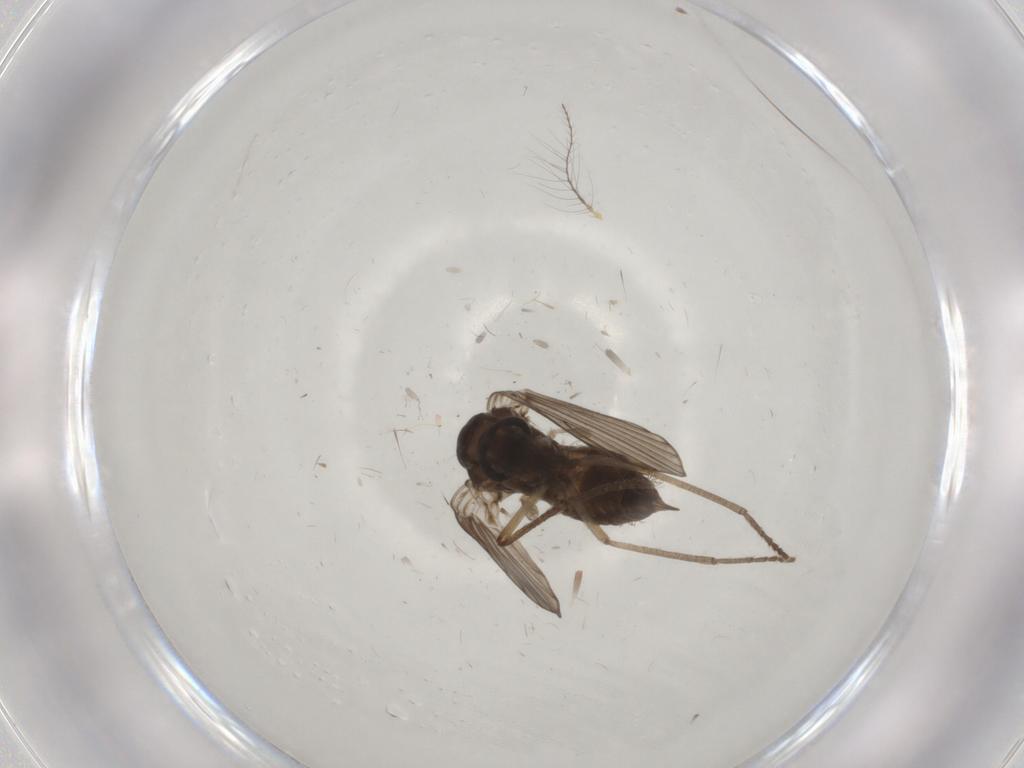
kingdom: Animalia
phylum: Arthropoda
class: Insecta
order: Diptera
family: Psychodidae
